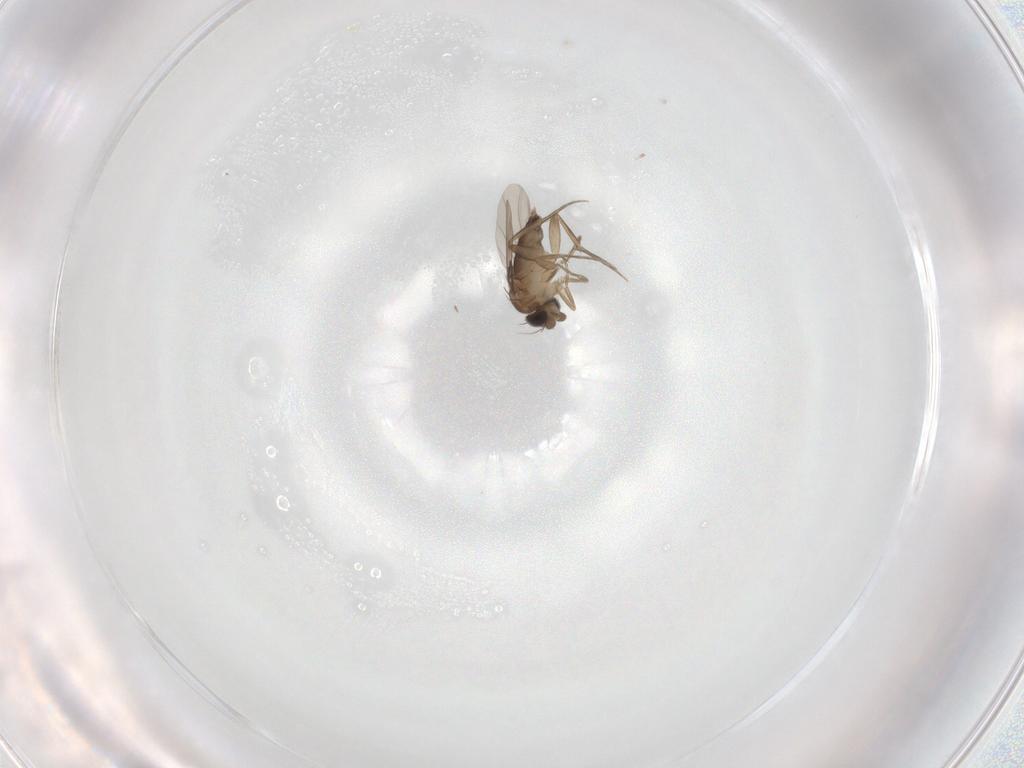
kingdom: Animalia
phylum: Arthropoda
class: Insecta
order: Diptera
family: Phoridae
